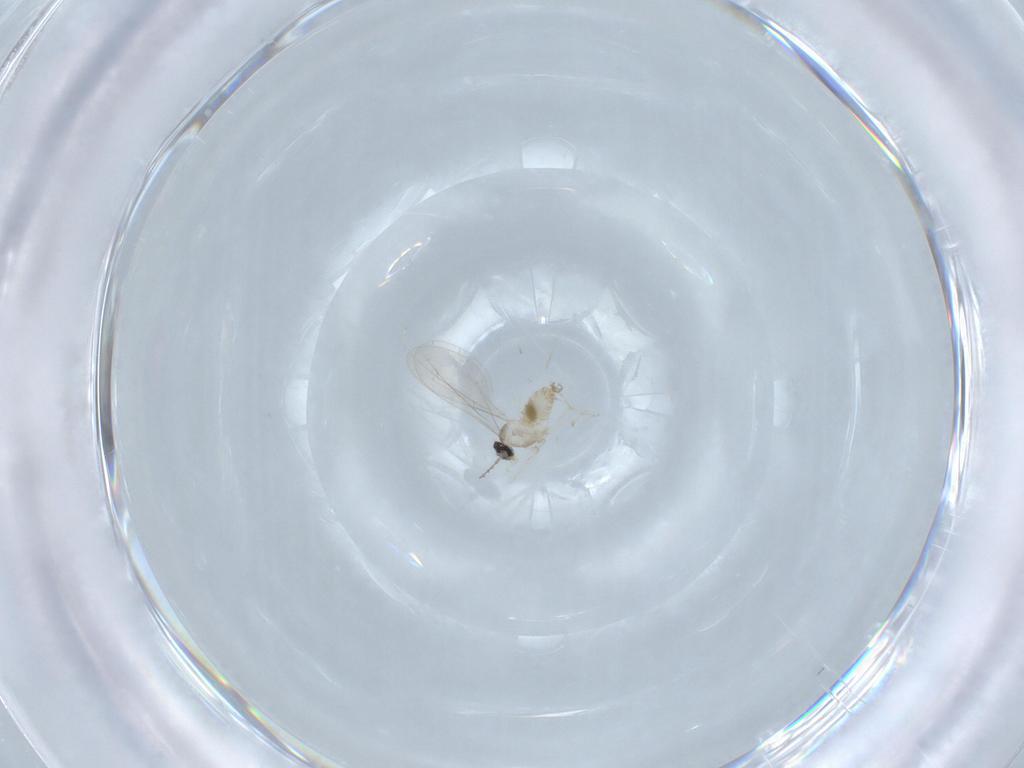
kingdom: Animalia
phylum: Arthropoda
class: Insecta
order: Diptera
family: Cecidomyiidae
